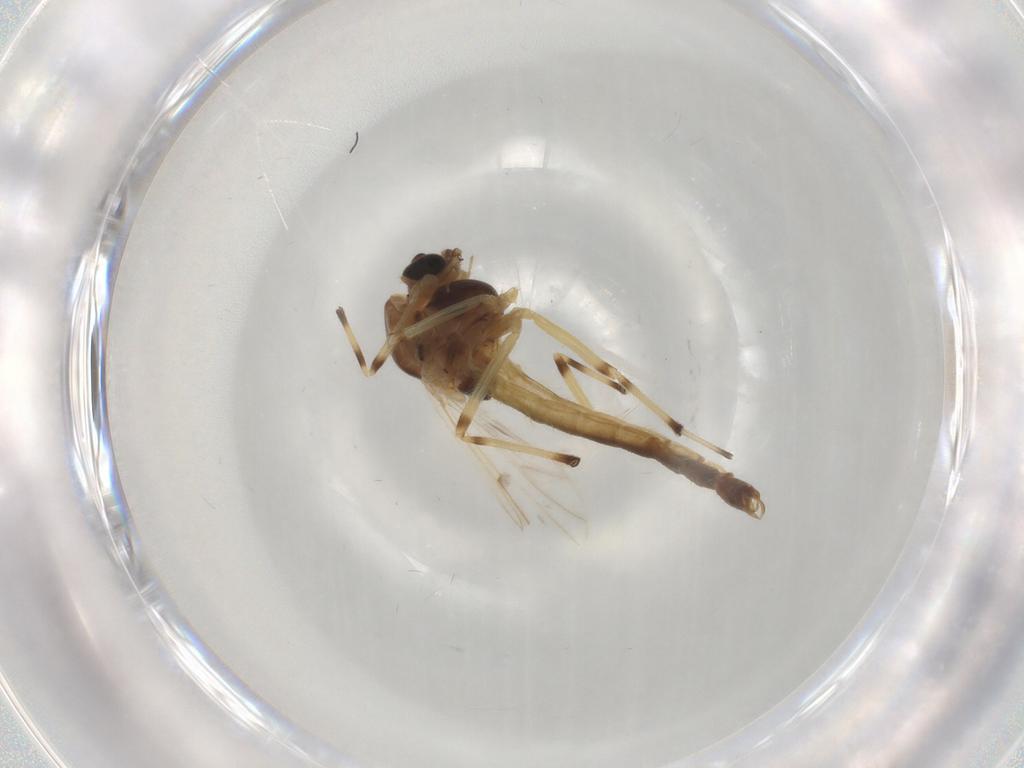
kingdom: Animalia
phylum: Arthropoda
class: Insecta
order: Diptera
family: Chironomidae
